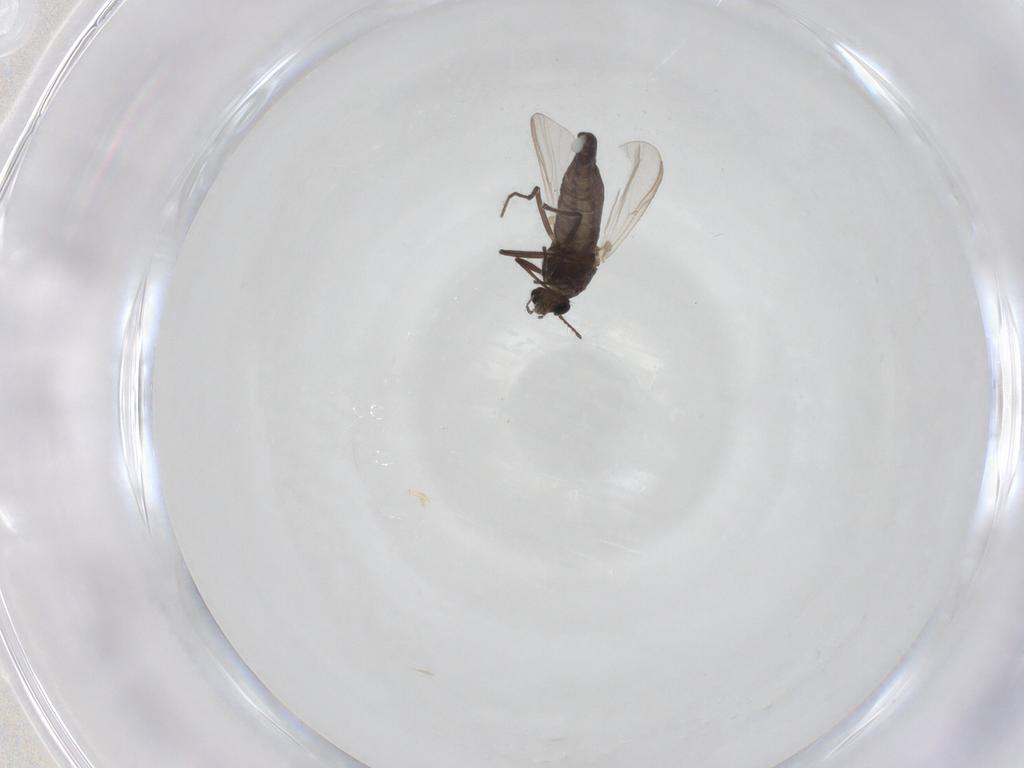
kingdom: Animalia
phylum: Arthropoda
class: Insecta
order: Diptera
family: Chironomidae
